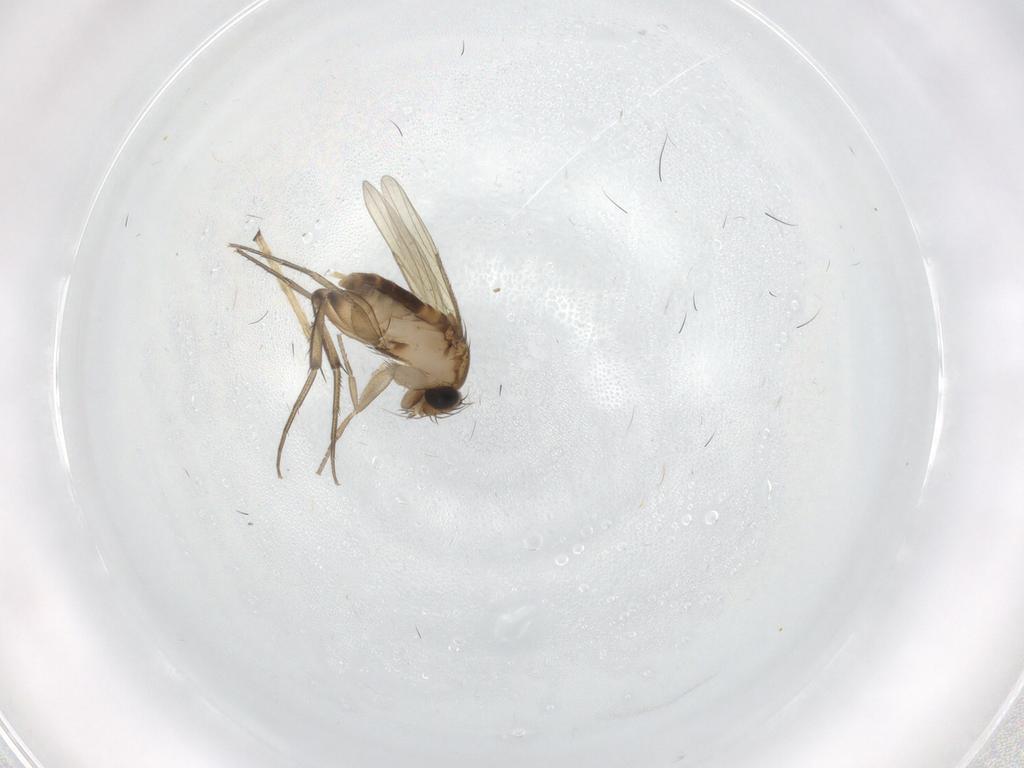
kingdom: Animalia
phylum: Arthropoda
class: Insecta
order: Diptera
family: Phoridae
